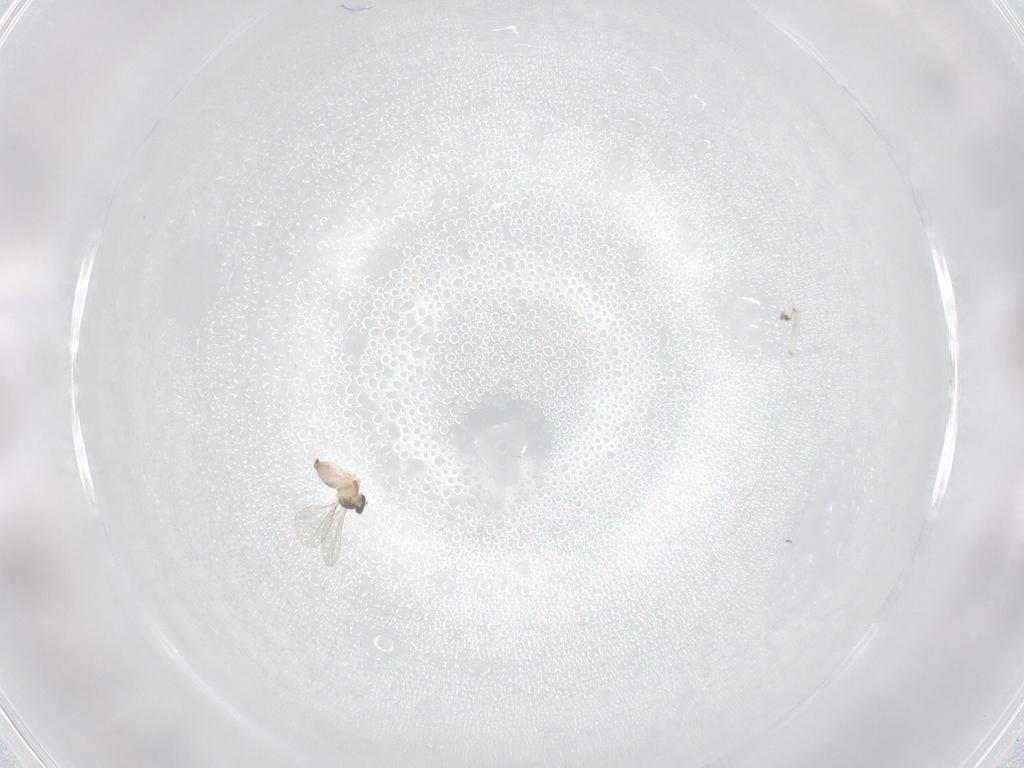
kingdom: Animalia
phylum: Arthropoda
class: Insecta
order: Diptera
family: Cecidomyiidae
